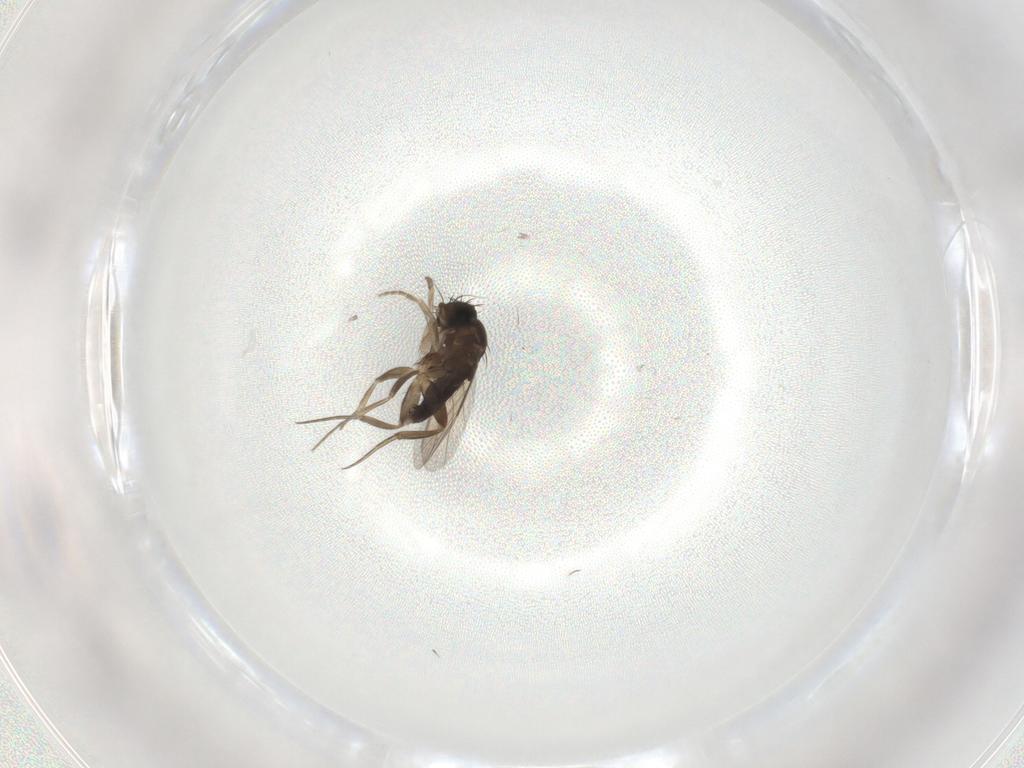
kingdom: Animalia
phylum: Arthropoda
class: Insecta
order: Diptera
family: Phoridae
